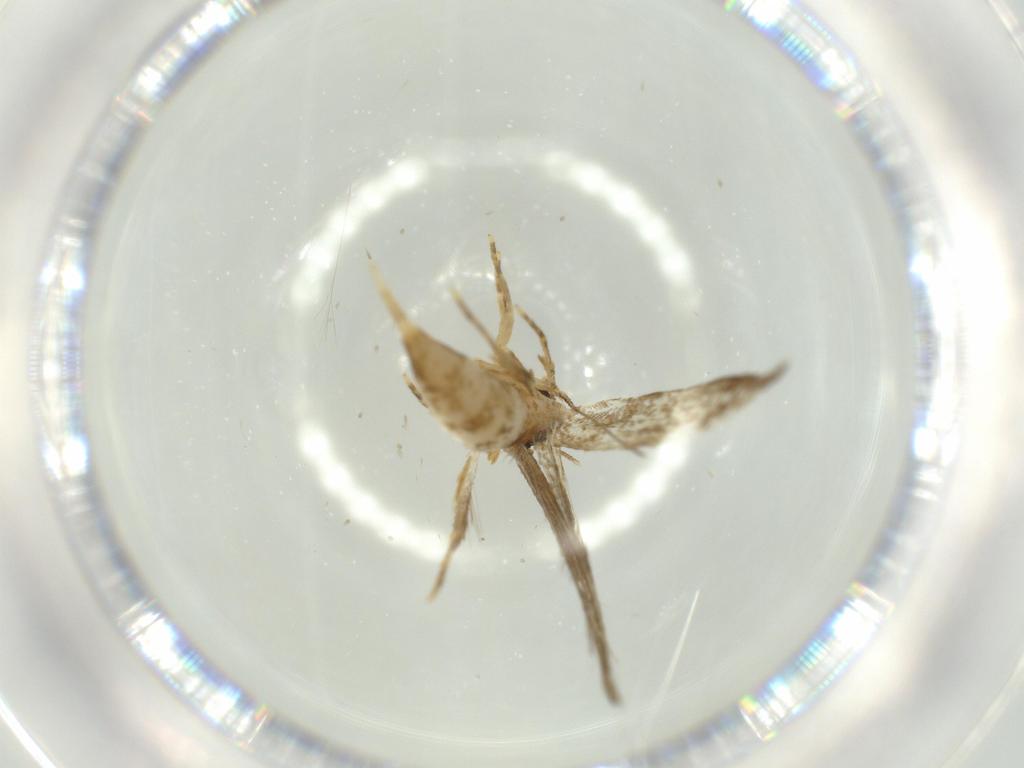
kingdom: Animalia
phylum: Arthropoda
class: Insecta
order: Lepidoptera
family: Tineidae
